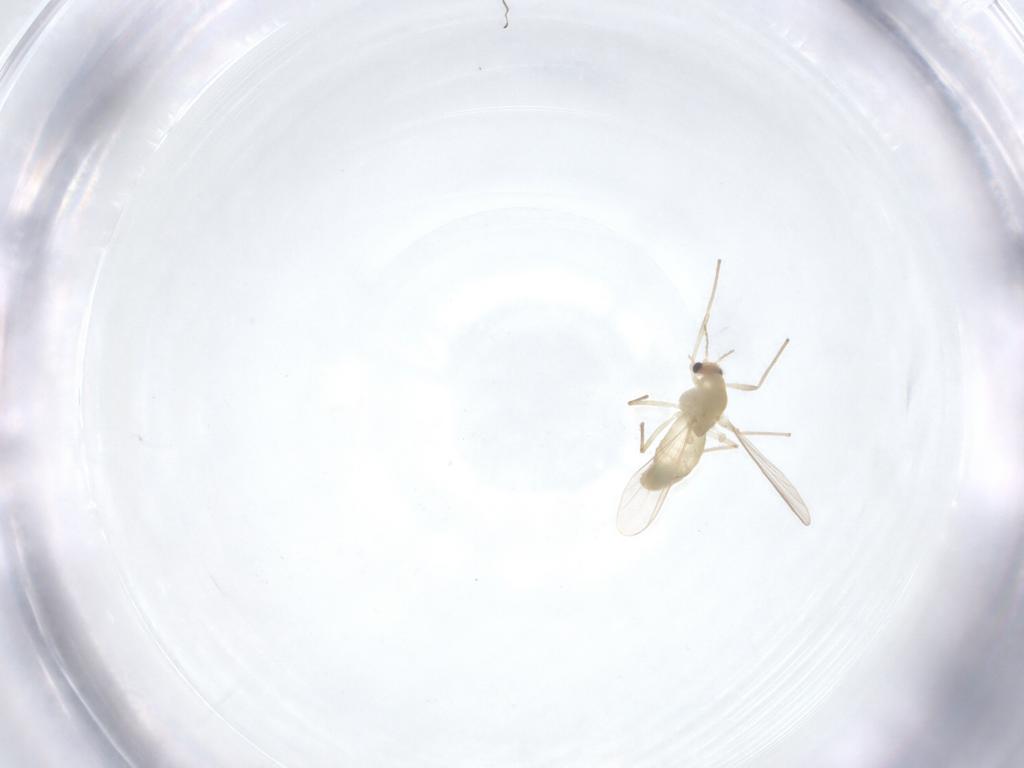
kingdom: Animalia
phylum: Arthropoda
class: Insecta
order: Diptera
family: Chironomidae
